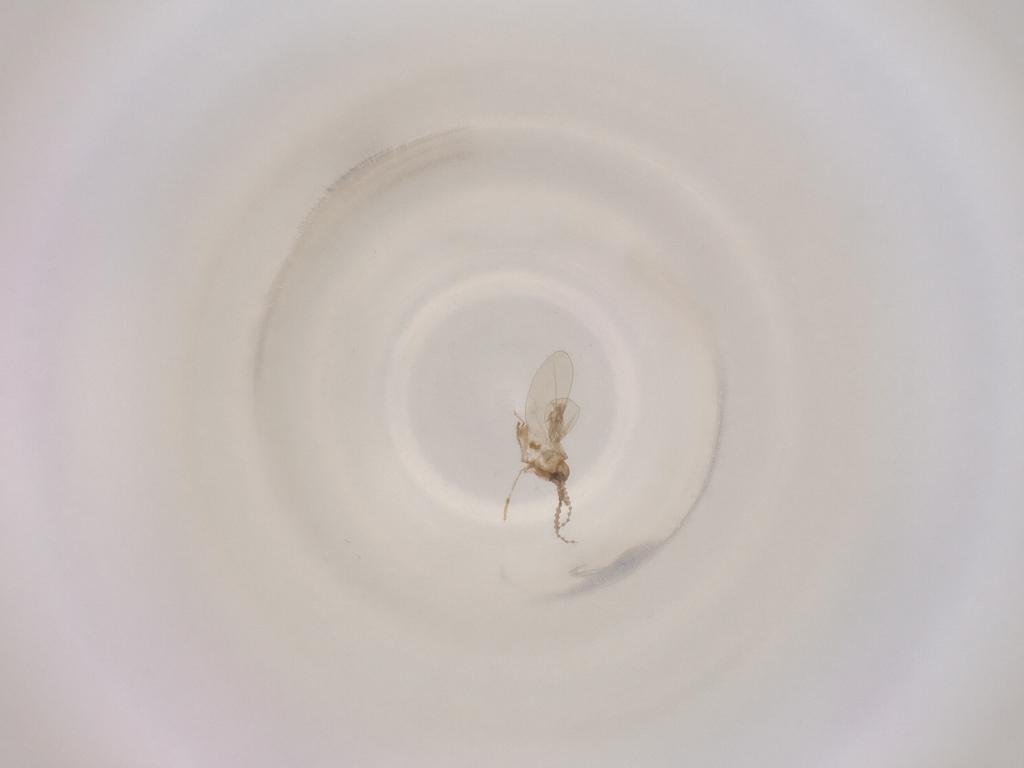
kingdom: Animalia
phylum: Arthropoda
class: Insecta
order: Diptera
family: Cecidomyiidae
